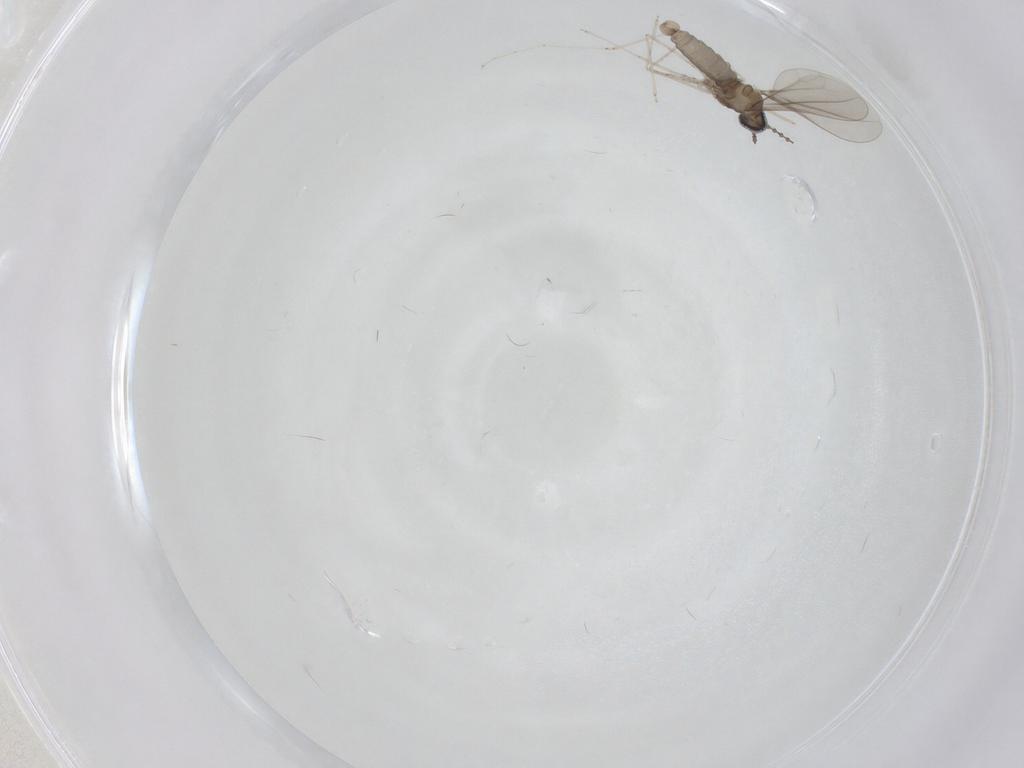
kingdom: Animalia
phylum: Arthropoda
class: Insecta
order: Diptera
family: Cecidomyiidae
